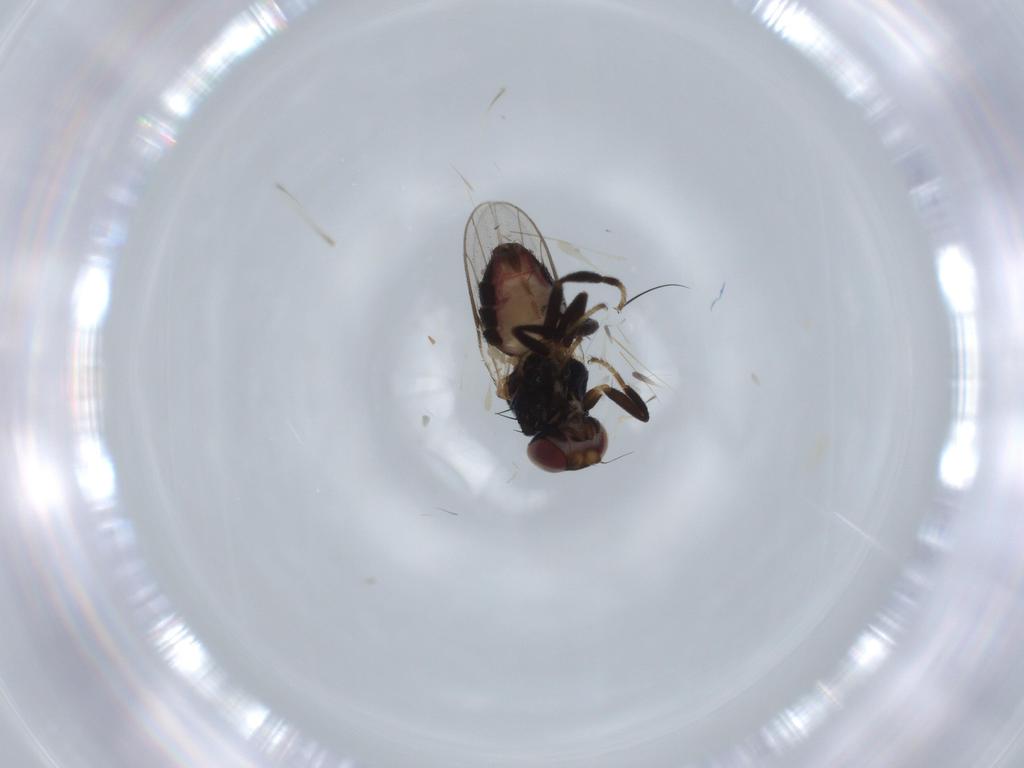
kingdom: Animalia
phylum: Arthropoda
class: Insecta
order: Diptera
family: Chloropidae
